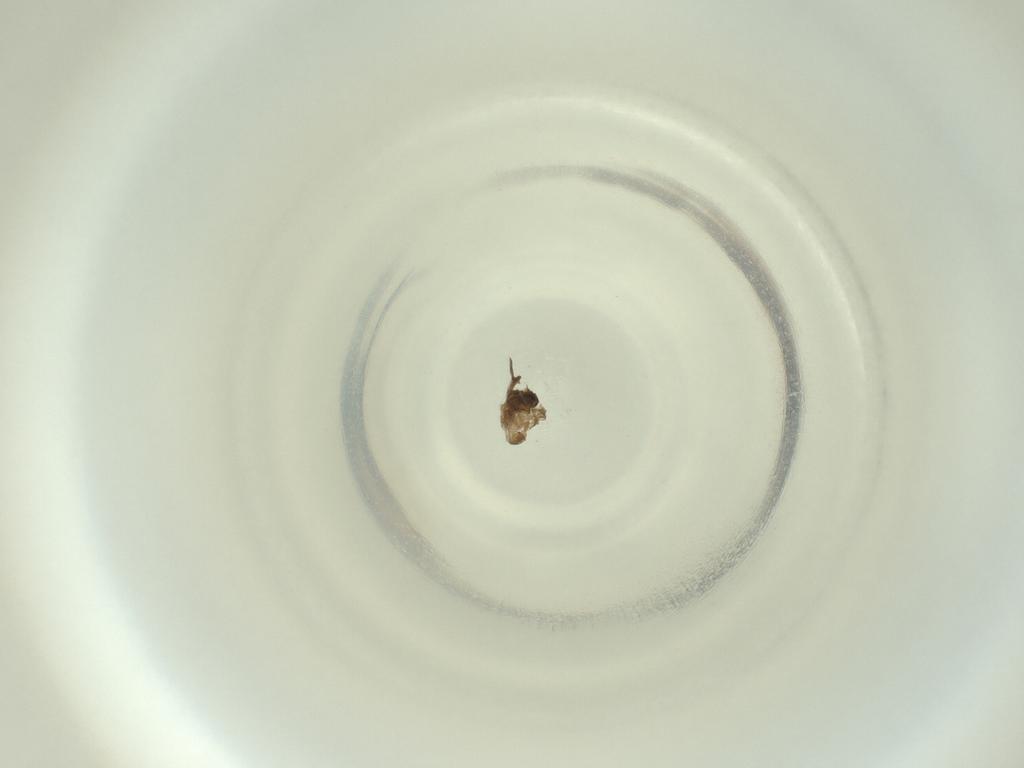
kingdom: Animalia
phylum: Arthropoda
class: Insecta
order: Diptera
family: Cecidomyiidae
